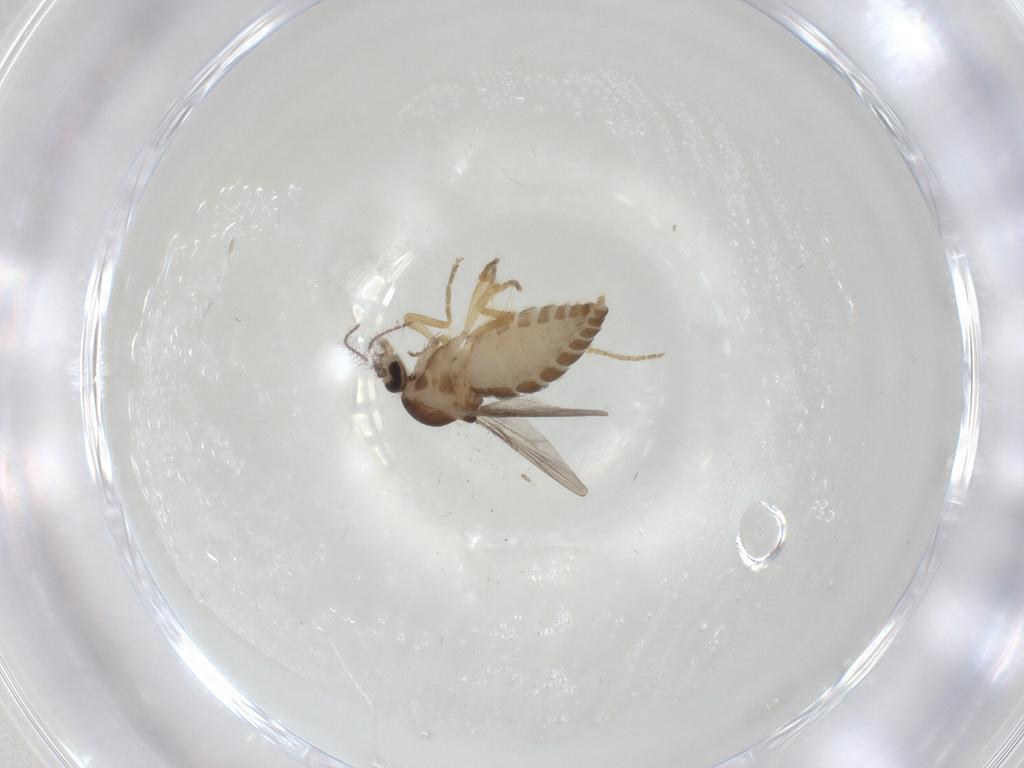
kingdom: Animalia
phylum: Arthropoda
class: Insecta
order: Diptera
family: Ceratopogonidae
